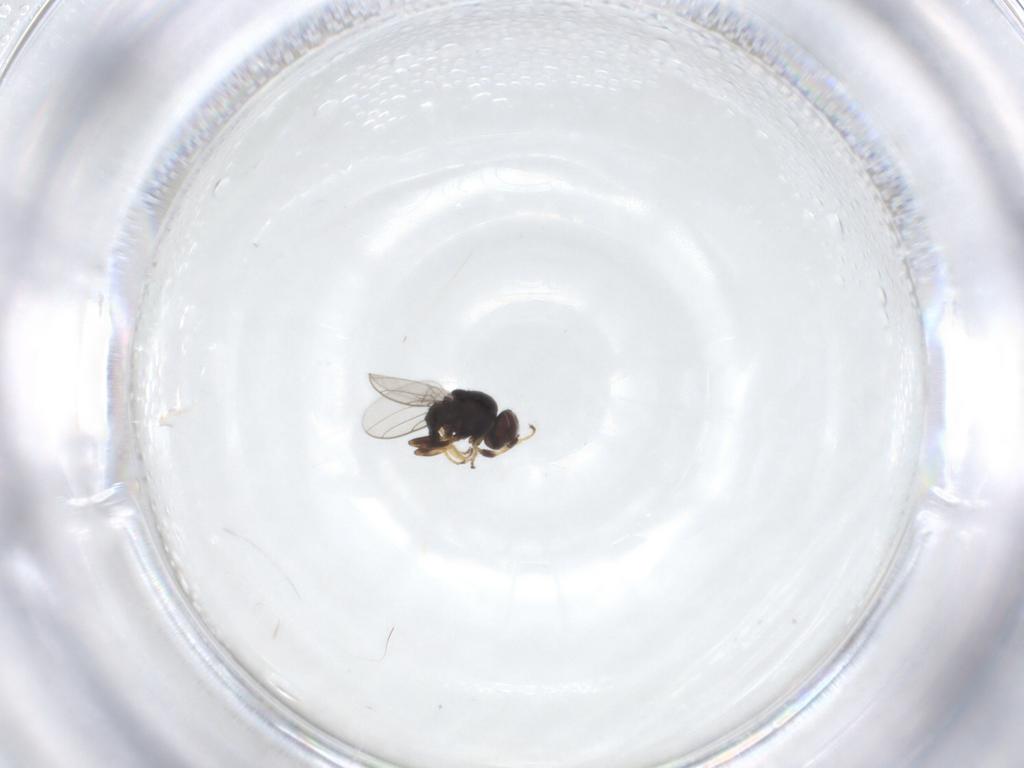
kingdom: Animalia
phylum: Arthropoda
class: Insecta
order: Diptera
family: Chloropidae
